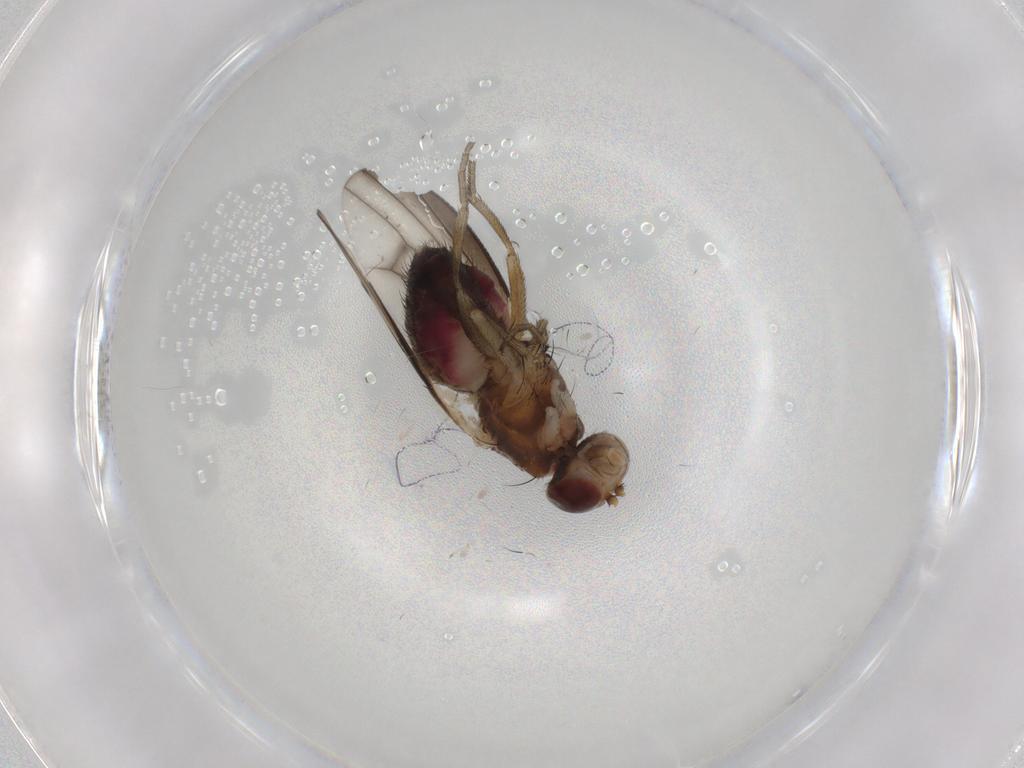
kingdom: Animalia
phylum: Arthropoda
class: Insecta
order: Diptera
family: Heleomyzidae
